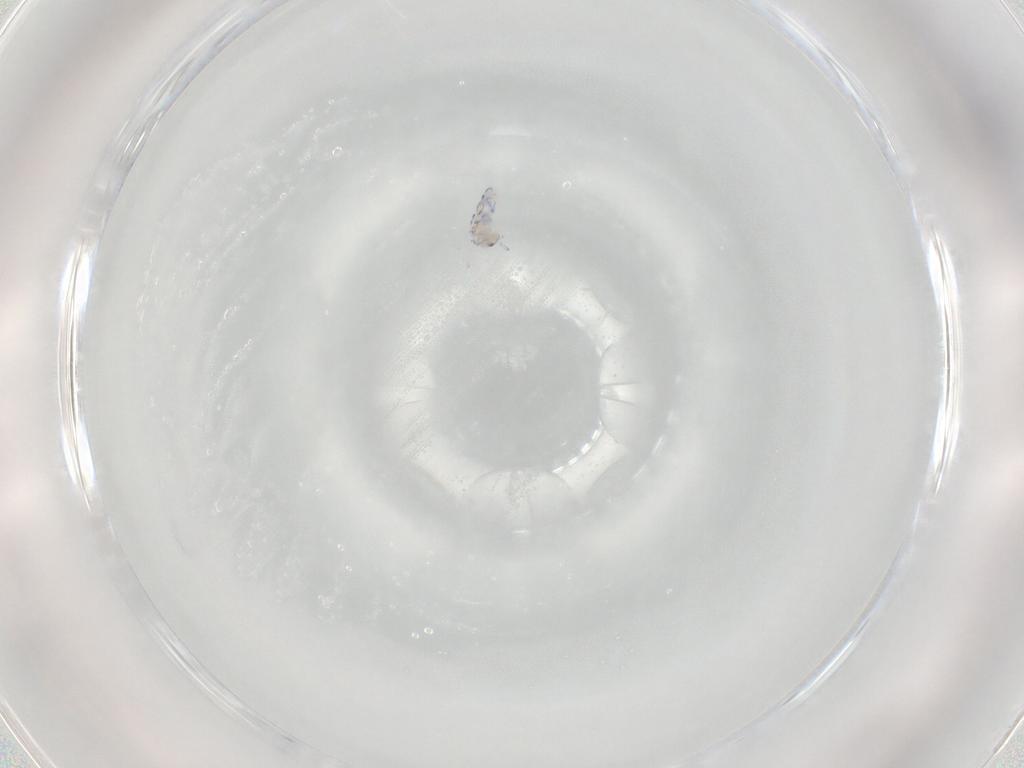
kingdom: Animalia
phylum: Arthropoda
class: Collembola
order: Entomobryomorpha
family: Entomobryidae
